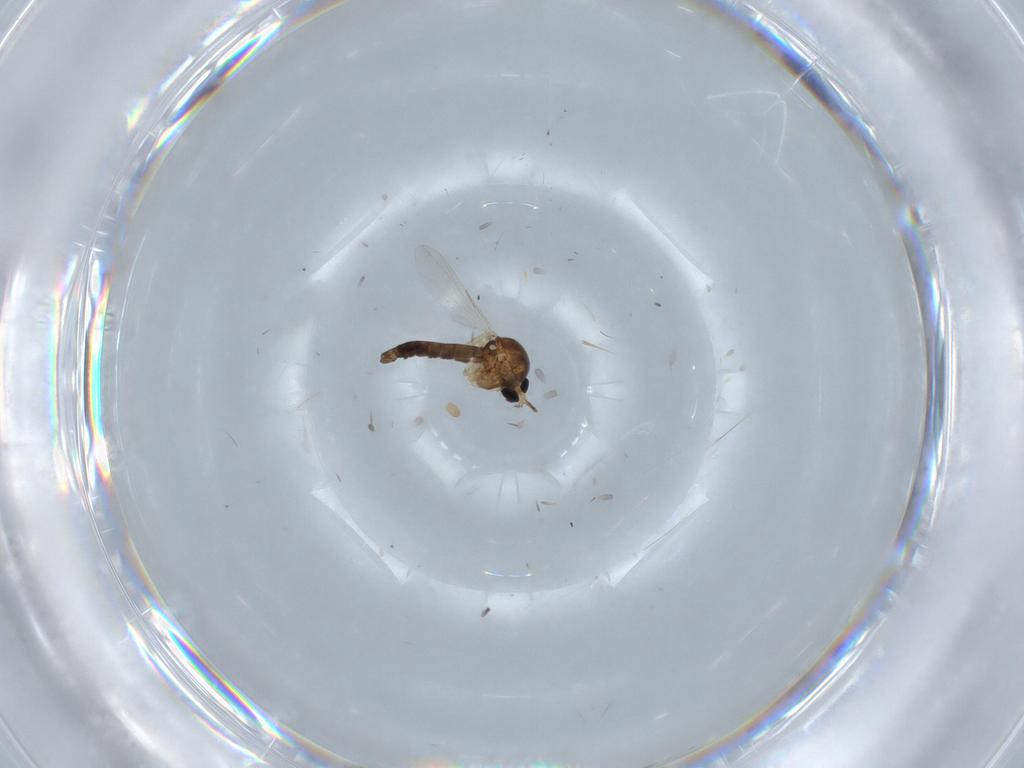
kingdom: Animalia
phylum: Arthropoda
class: Insecta
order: Diptera
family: Ceratopogonidae
